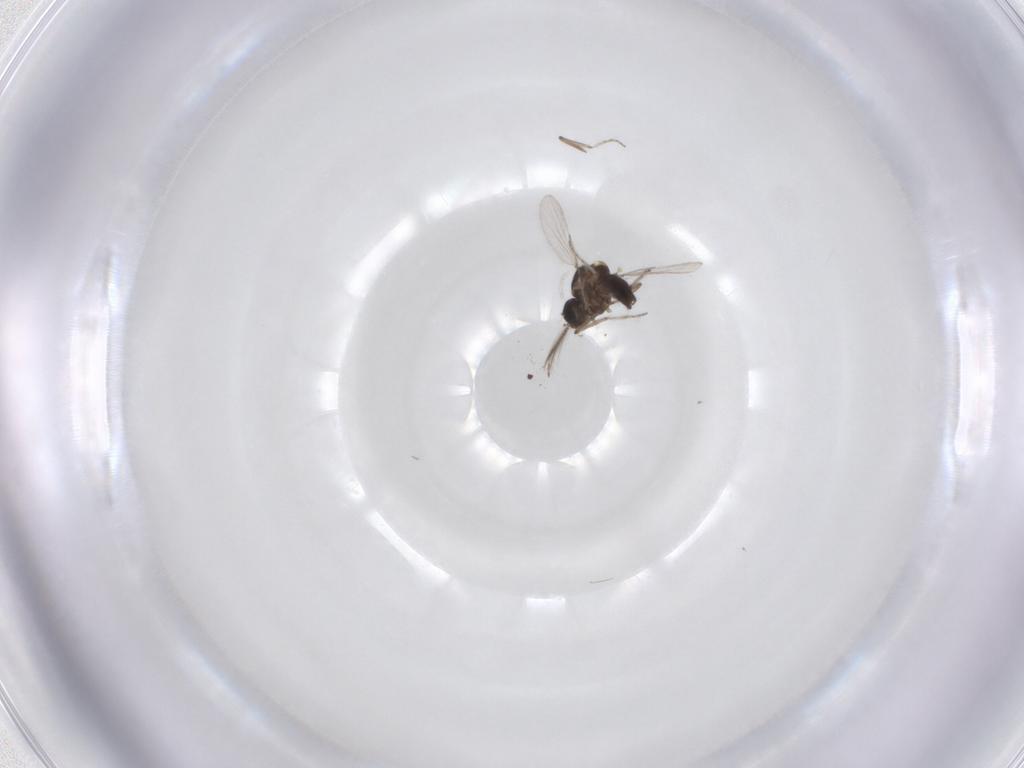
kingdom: Animalia
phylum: Arthropoda
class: Insecta
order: Diptera
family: Ceratopogonidae
